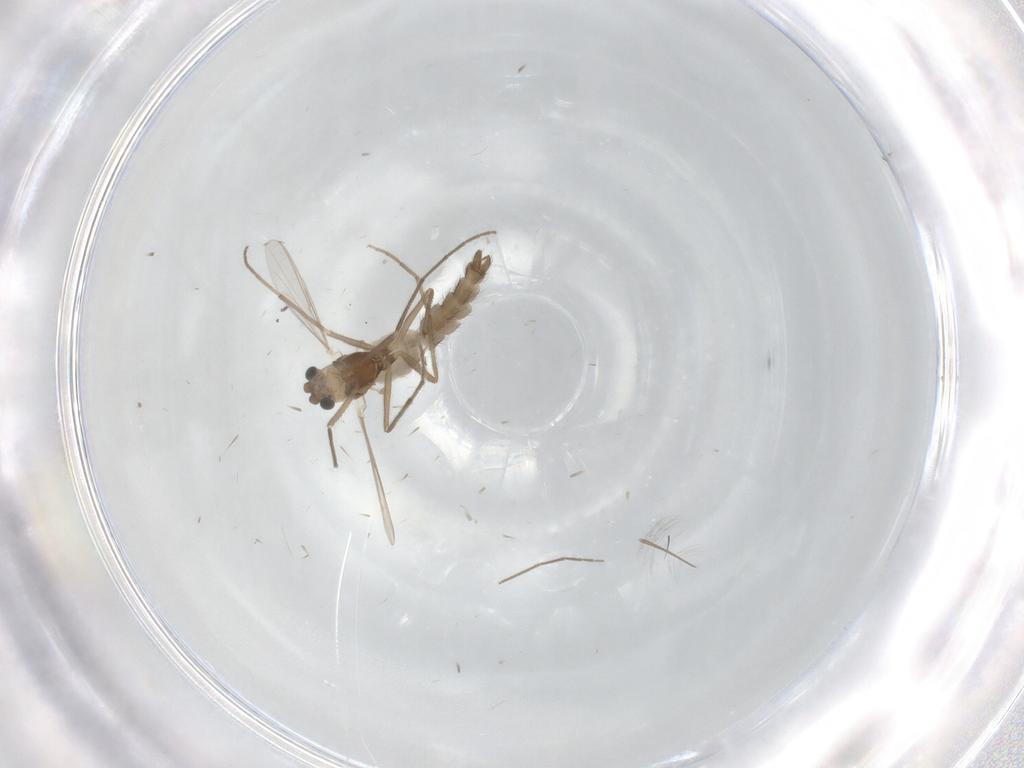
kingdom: Animalia
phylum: Arthropoda
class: Insecta
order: Diptera
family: Chironomidae
